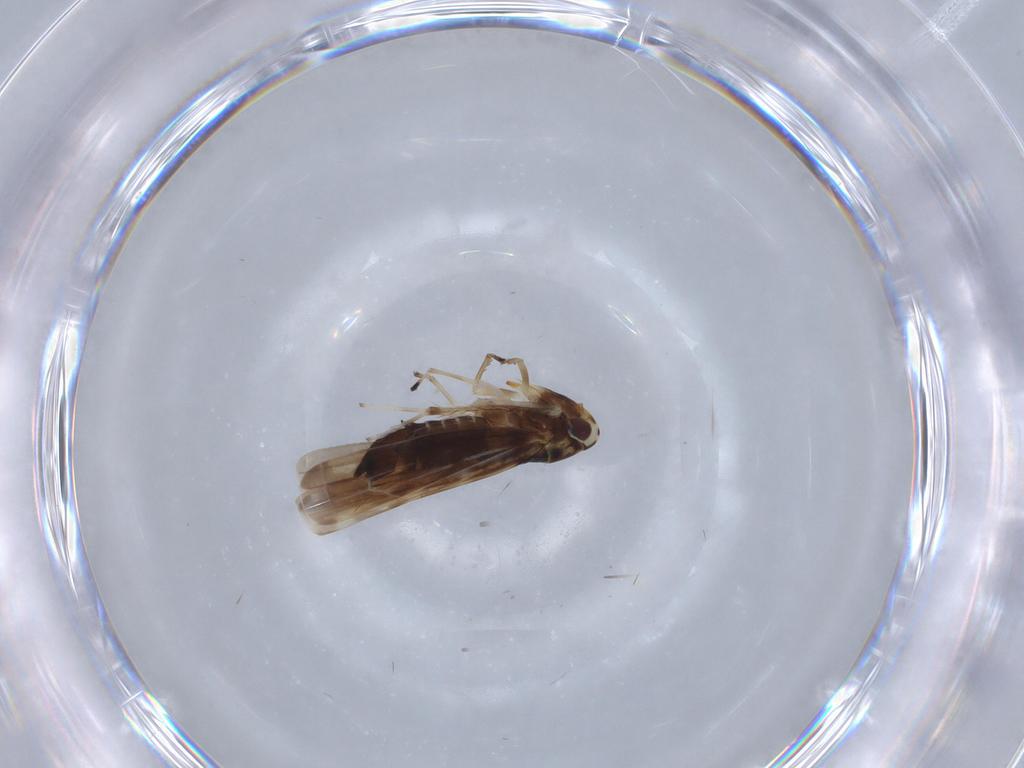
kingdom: Animalia
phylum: Arthropoda
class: Insecta
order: Hemiptera
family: Cicadellidae
